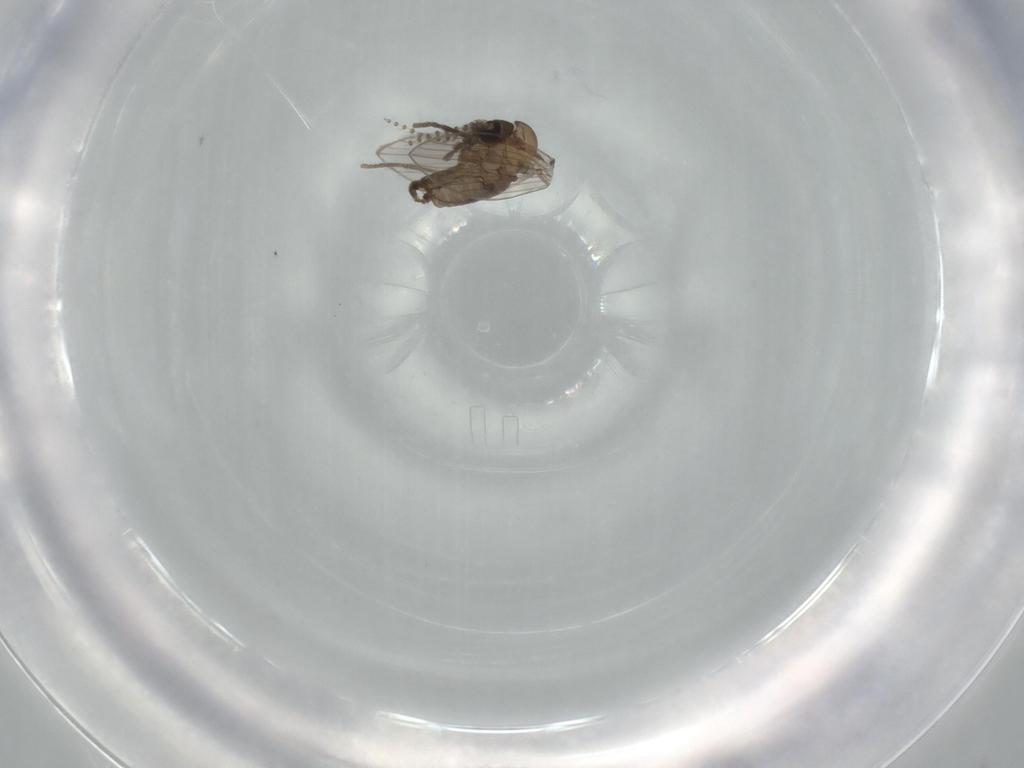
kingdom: Animalia
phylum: Arthropoda
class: Insecta
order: Diptera
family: Psychodidae
